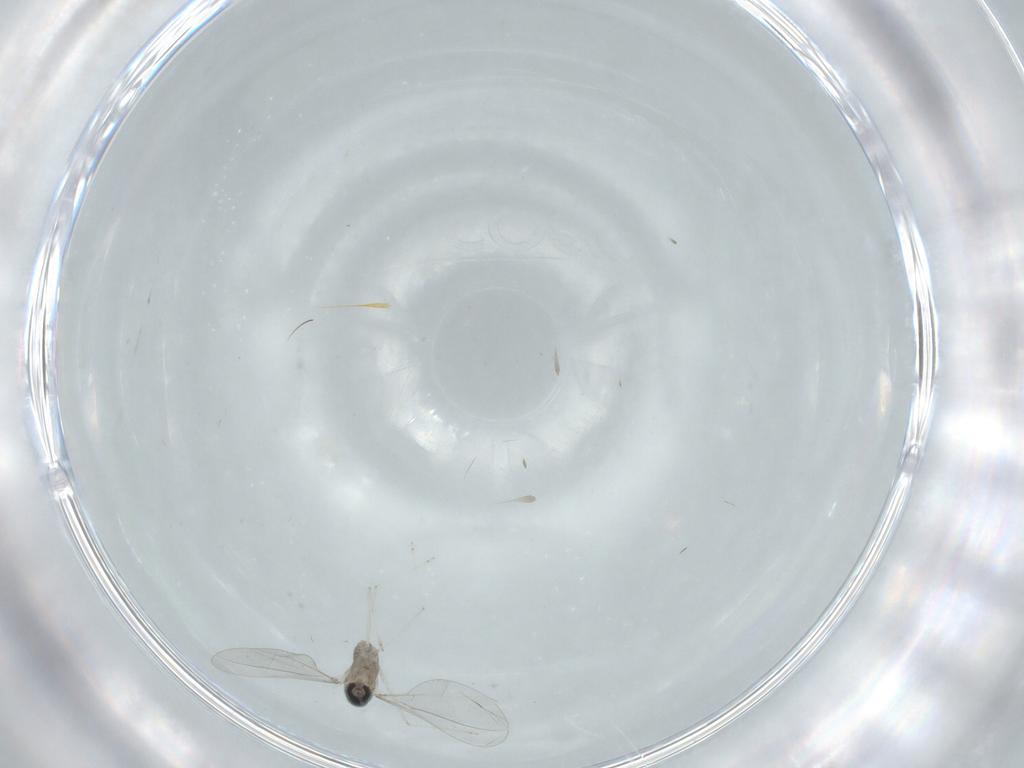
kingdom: Animalia
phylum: Arthropoda
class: Insecta
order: Diptera
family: Cecidomyiidae
